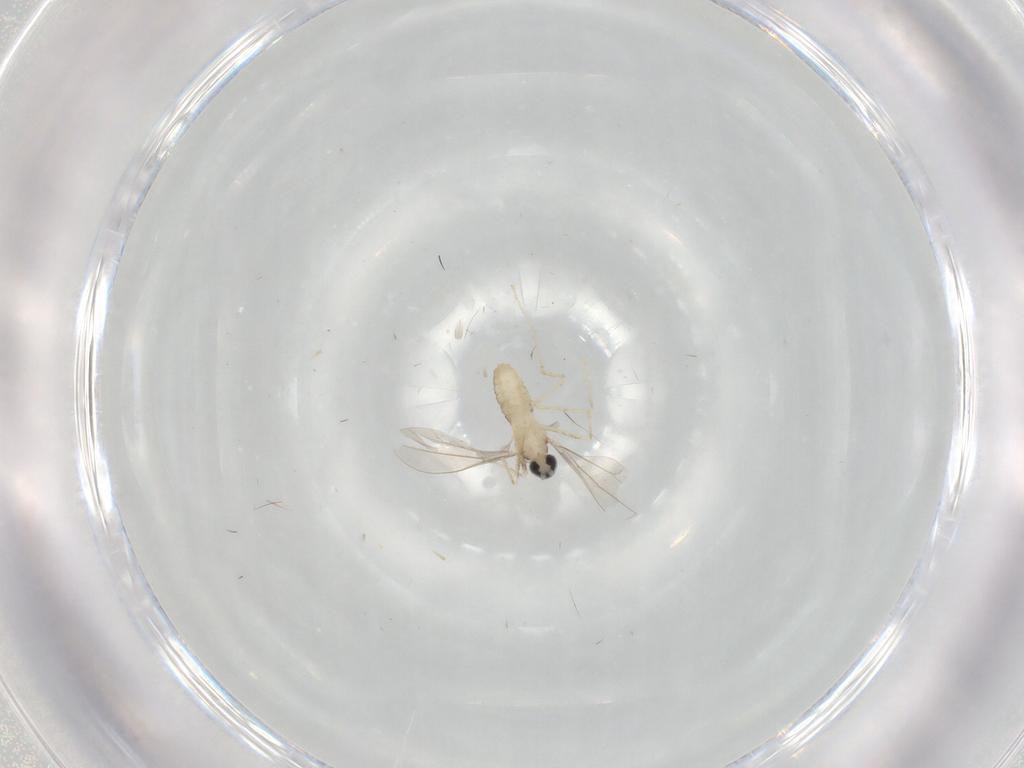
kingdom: Animalia
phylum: Arthropoda
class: Insecta
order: Diptera
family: Cecidomyiidae
